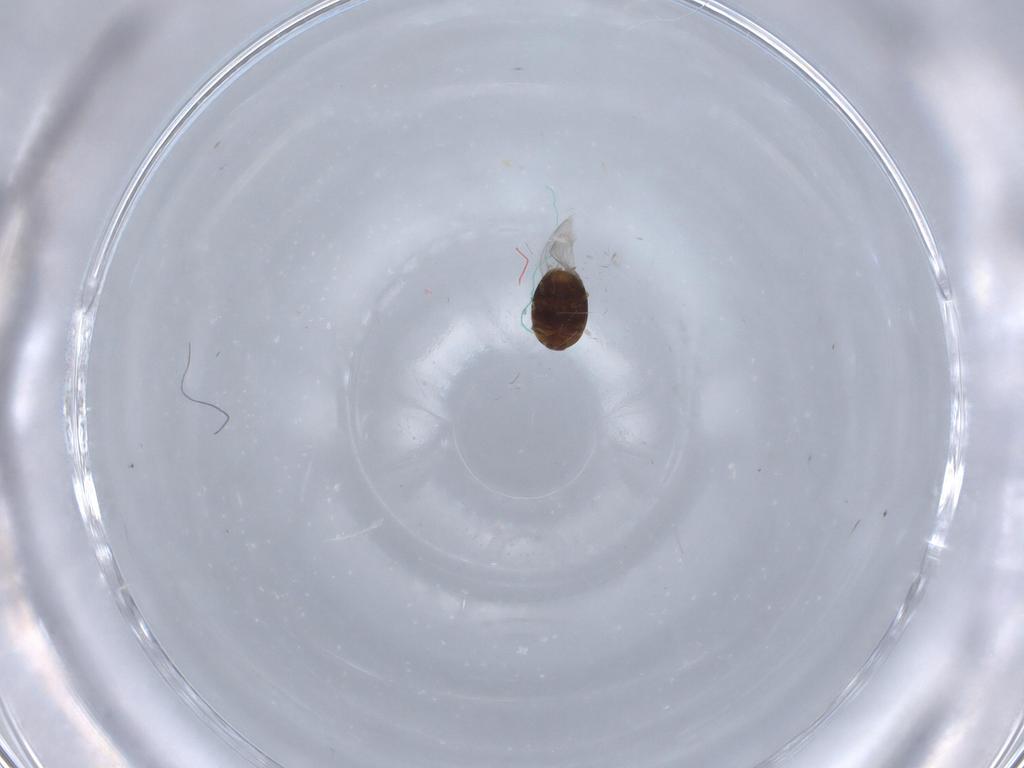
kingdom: Animalia
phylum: Arthropoda
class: Insecta
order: Coleoptera
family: Corylophidae
